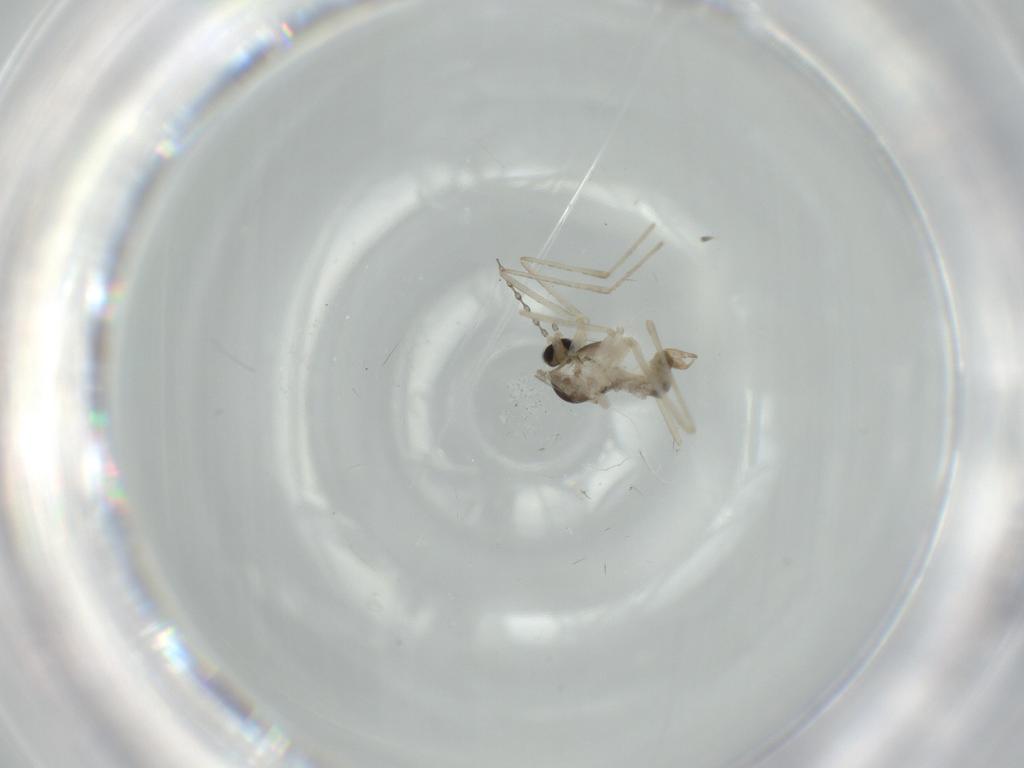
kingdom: Animalia
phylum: Arthropoda
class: Insecta
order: Diptera
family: Cecidomyiidae
